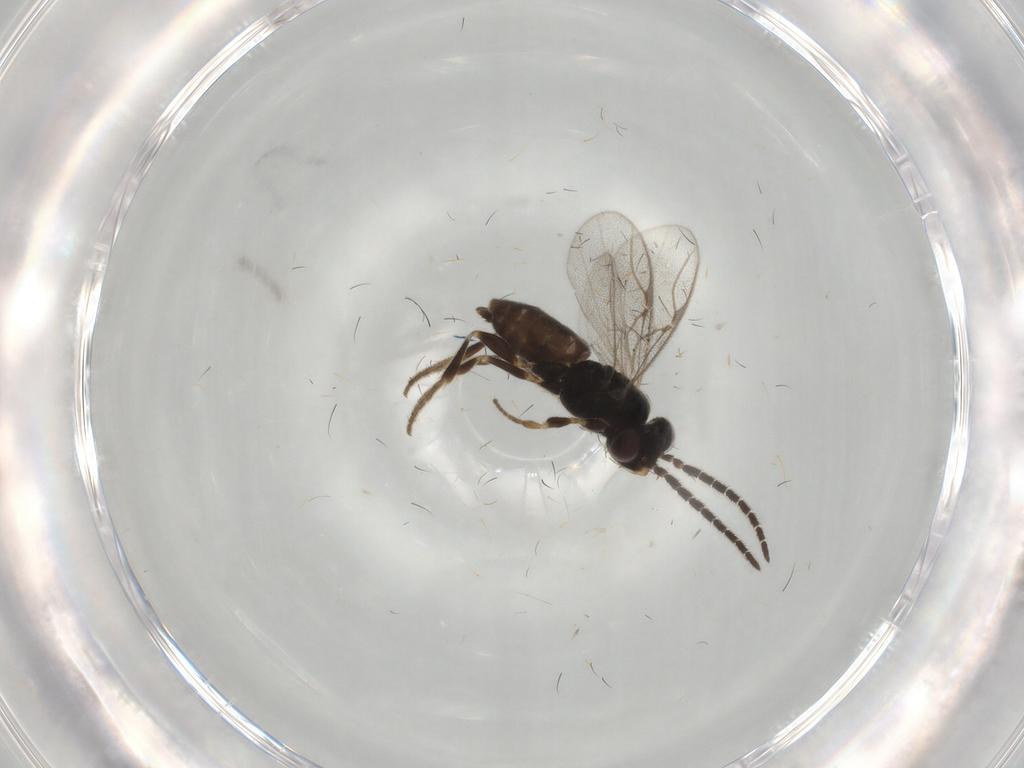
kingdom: Animalia
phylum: Arthropoda
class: Insecta
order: Hymenoptera
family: Dryinidae
